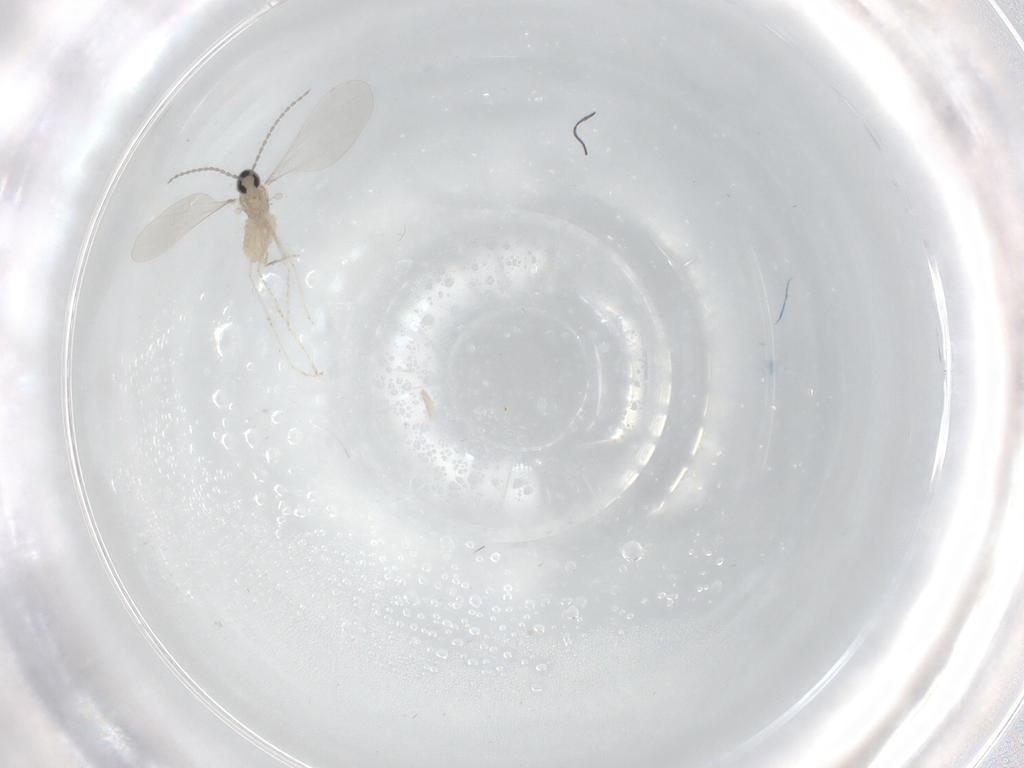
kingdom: Animalia
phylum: Arthropoda
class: Insecta
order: Diptera
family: Cecidomyiidae
